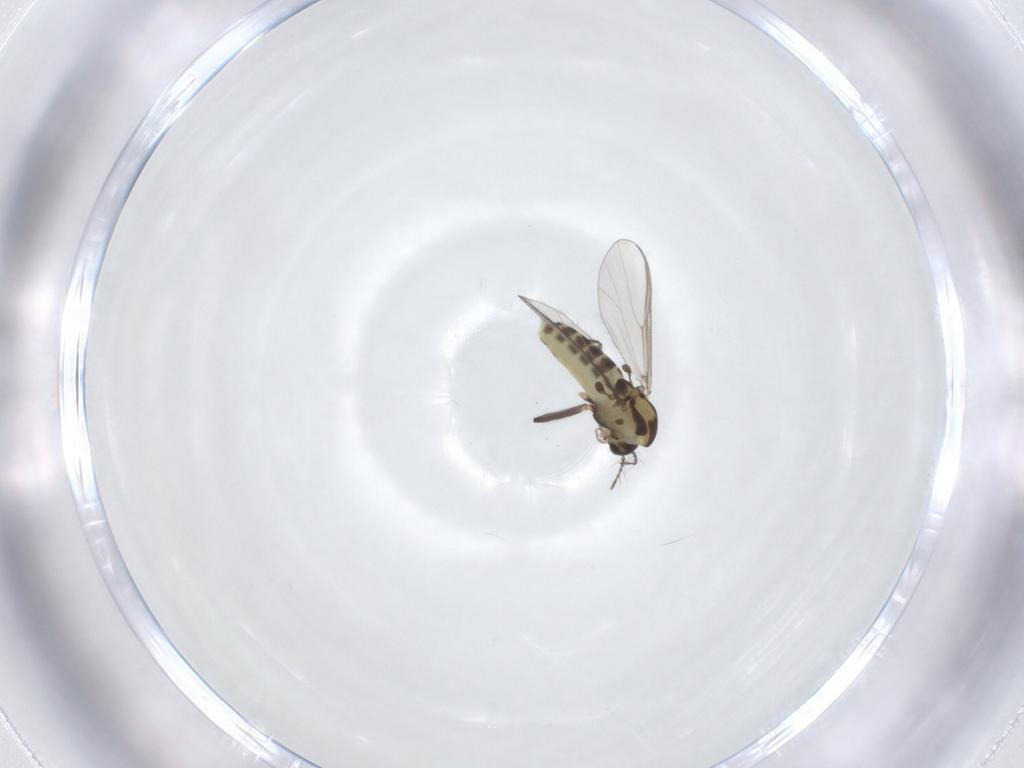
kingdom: Animalia
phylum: Arthropoda
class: Insecta
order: Diptera
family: Chironomidae
